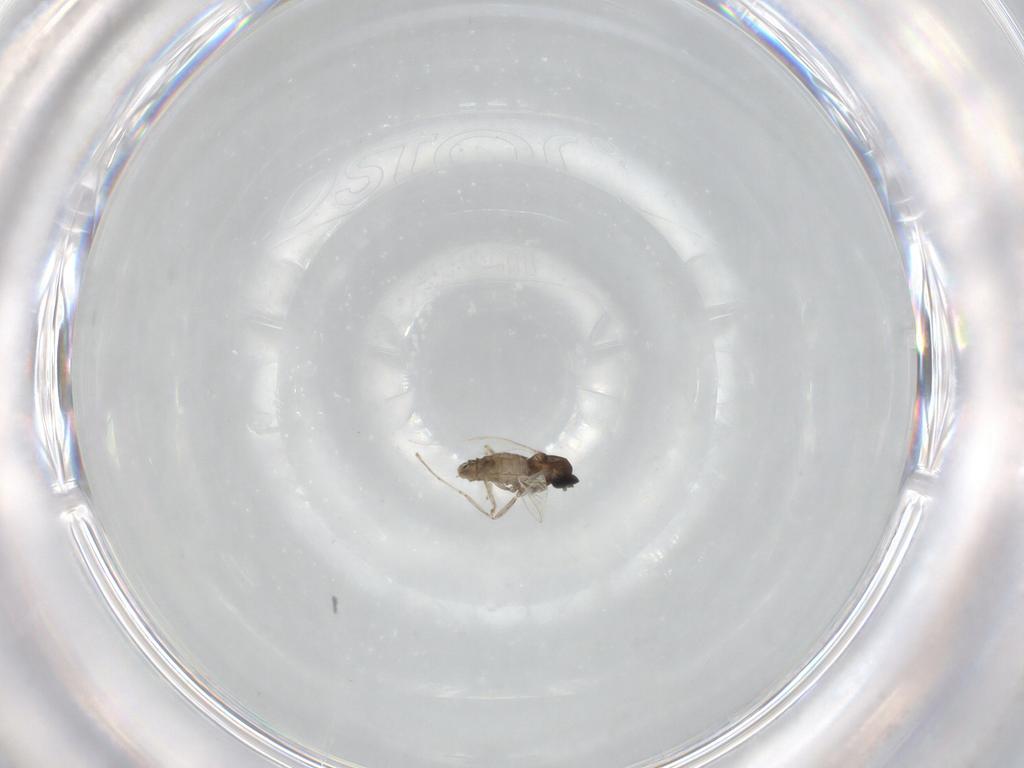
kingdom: Animalia
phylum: Arthropoda
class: Insecta
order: Diptera
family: Cecidomyiidae
